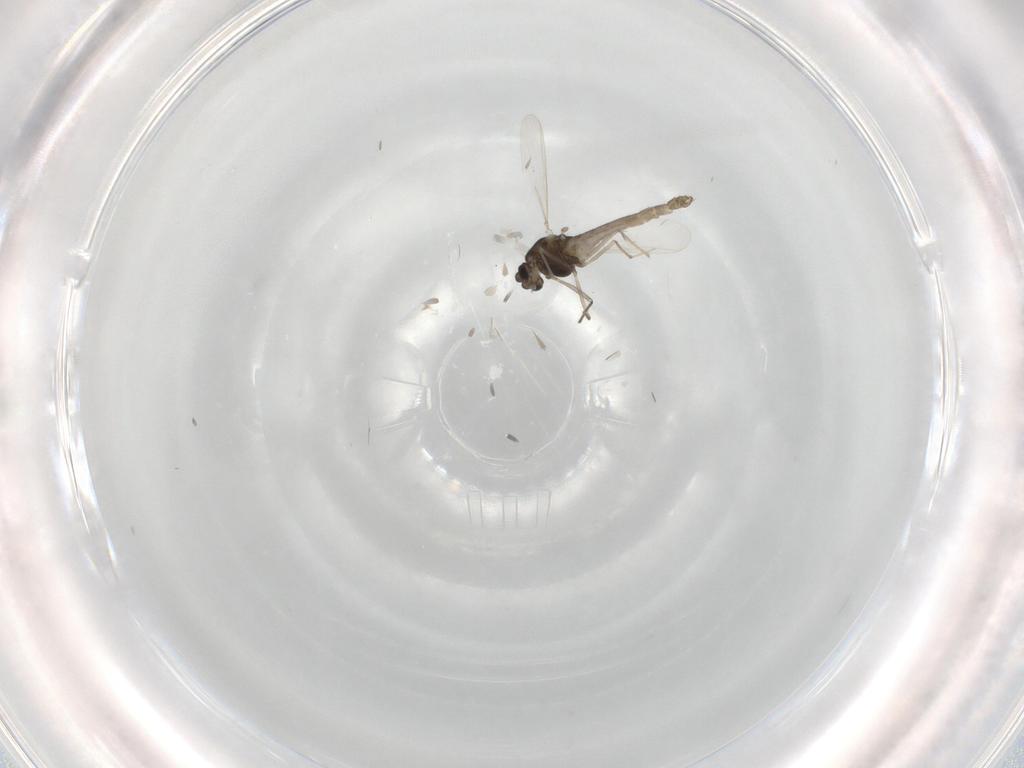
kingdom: Animalia
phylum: Arthropoda
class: Insecta
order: Diptera
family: Chironomidae
